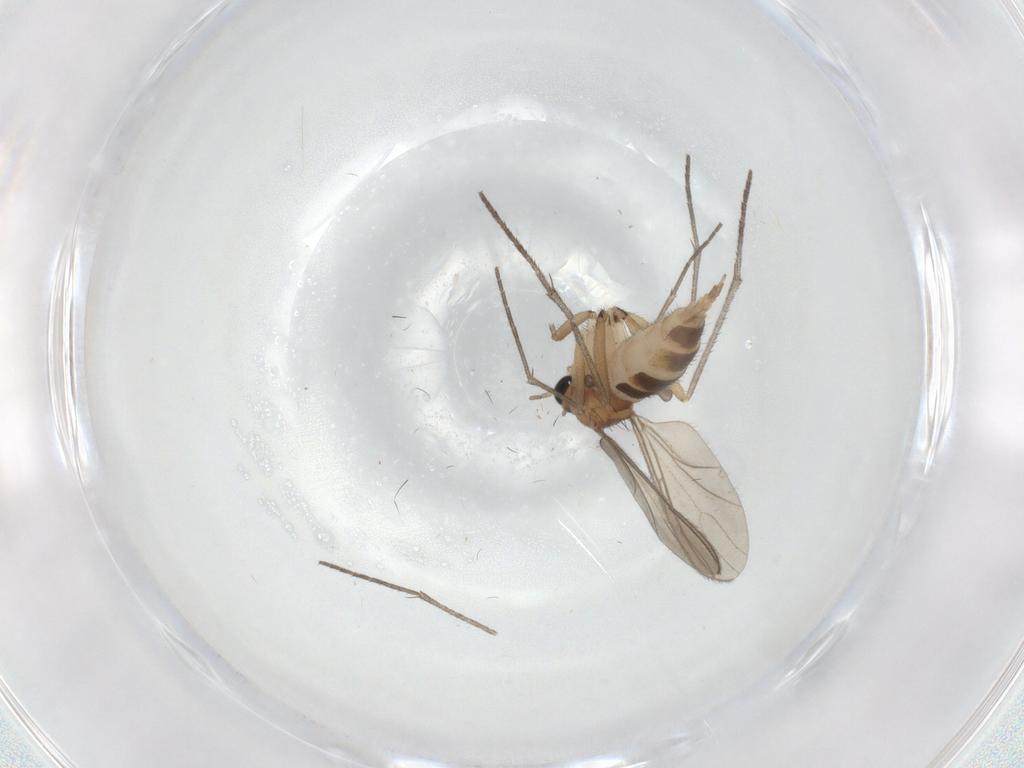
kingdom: Animalia
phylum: Arthropoda
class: Insecta
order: Diptera
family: Sciaridae
